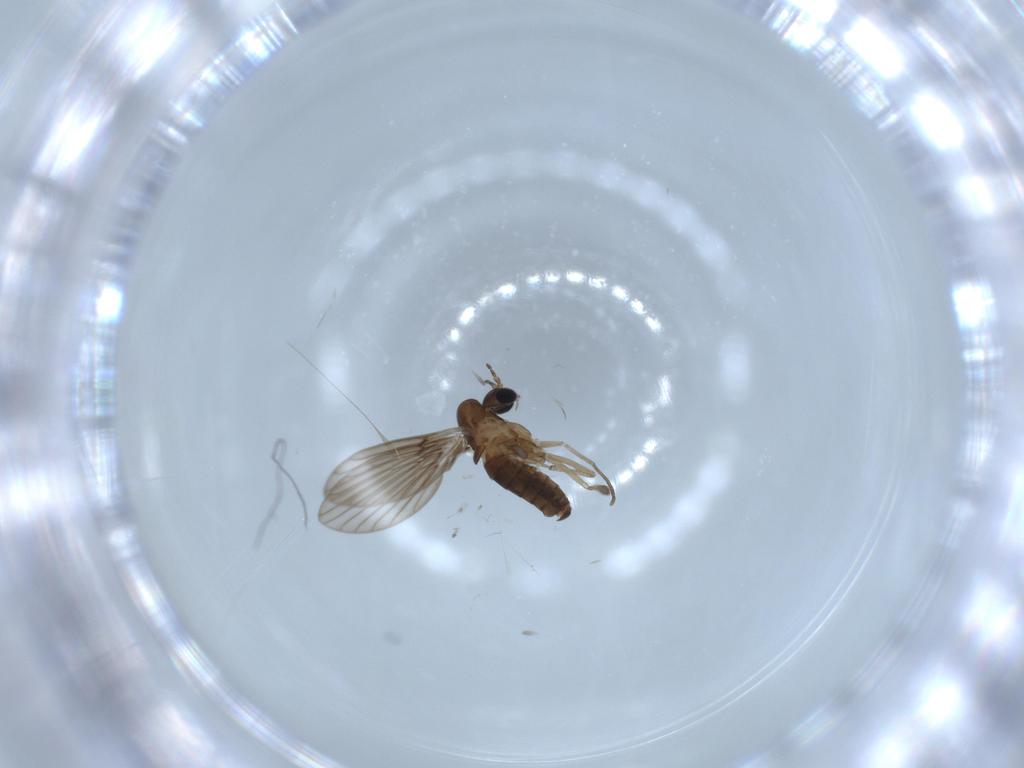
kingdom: Animalia
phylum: Arthropoda
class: Insecta
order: Diptera
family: Psychodidae
